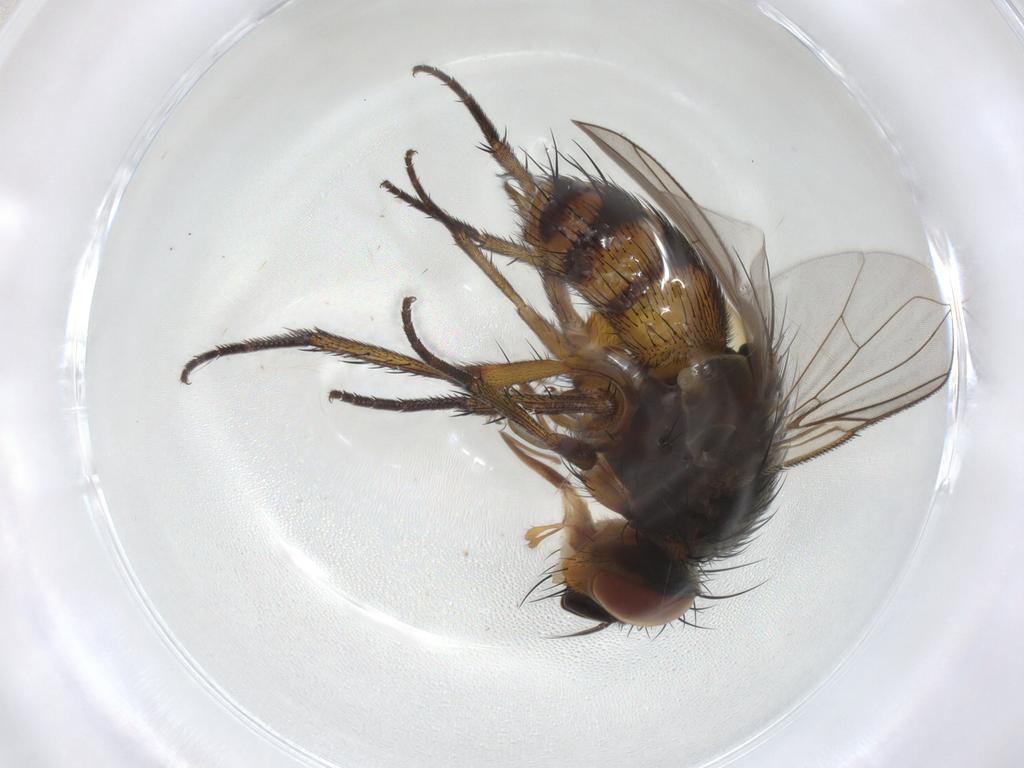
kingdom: Animalia
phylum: Arthropoda
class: Insecta
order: Diptera
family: Tachinidae
